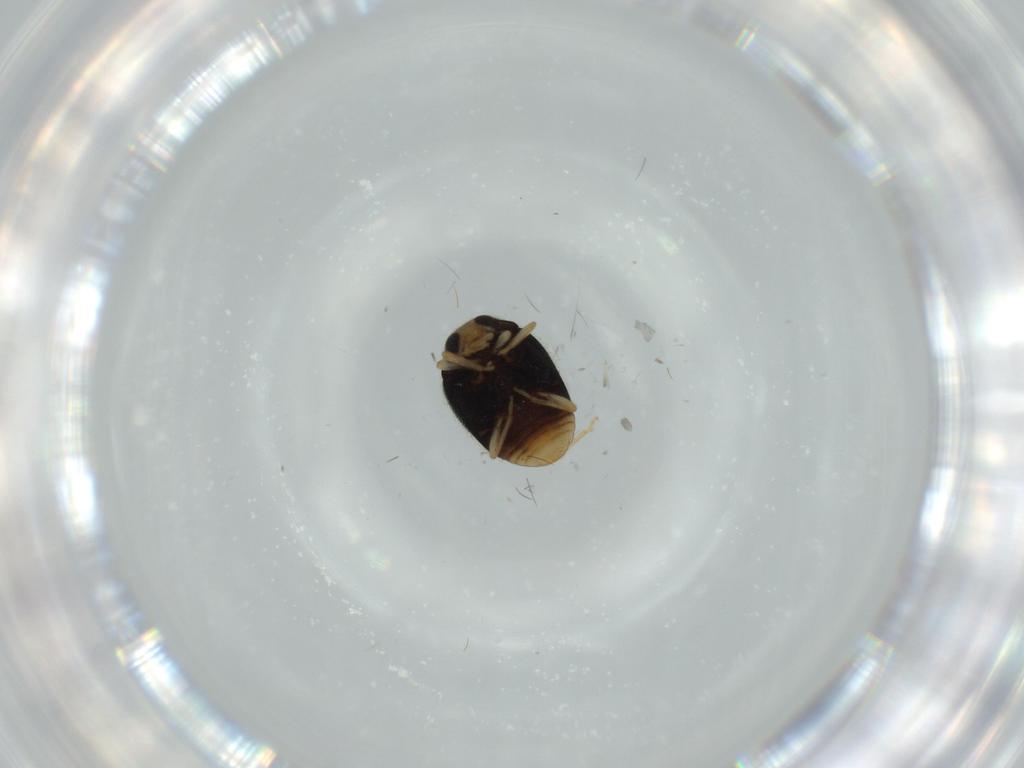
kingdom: Animalia
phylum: Arthropoda
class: Insecta
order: Coleoptera
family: Coccinellidae
